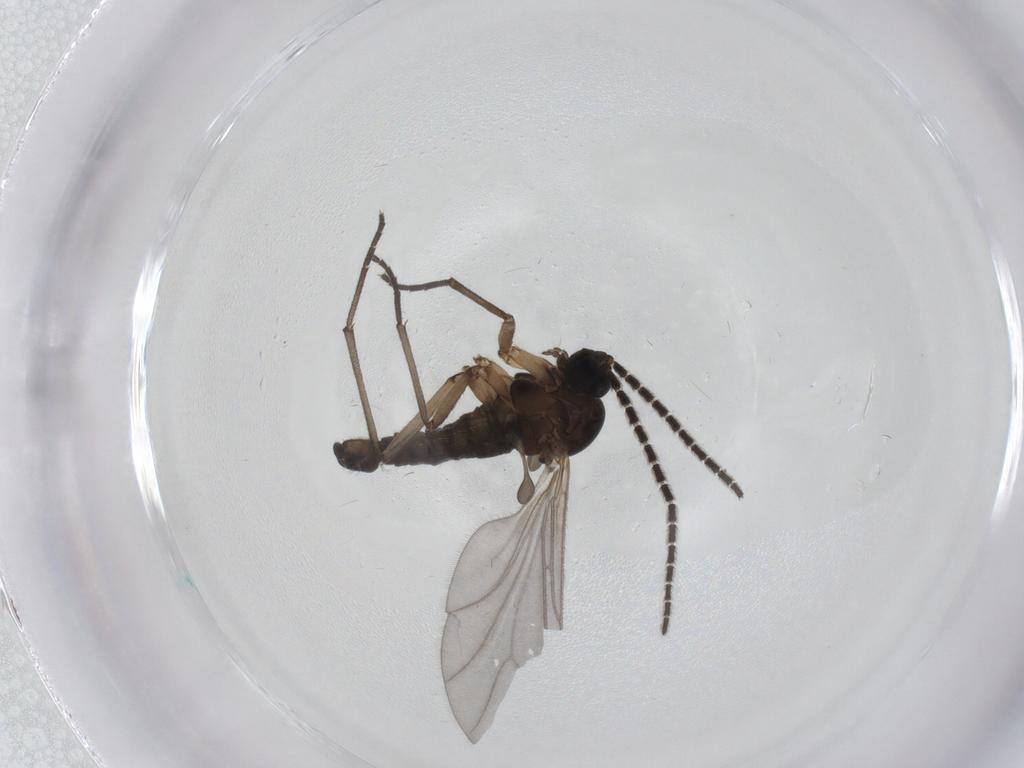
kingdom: Animalia
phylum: Arthropoda
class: Insecta
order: Diptera
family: Sciaridae
